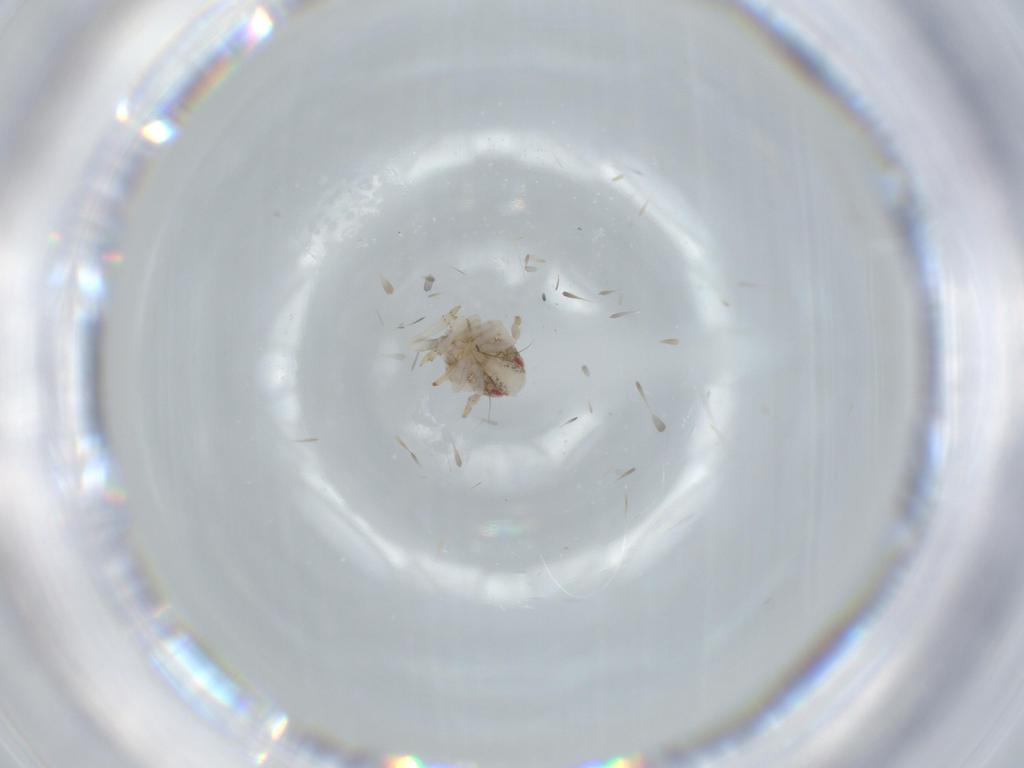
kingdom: Animalia
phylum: Arthropoda
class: Insecta
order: Hemiptera
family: Acanaloniidae
